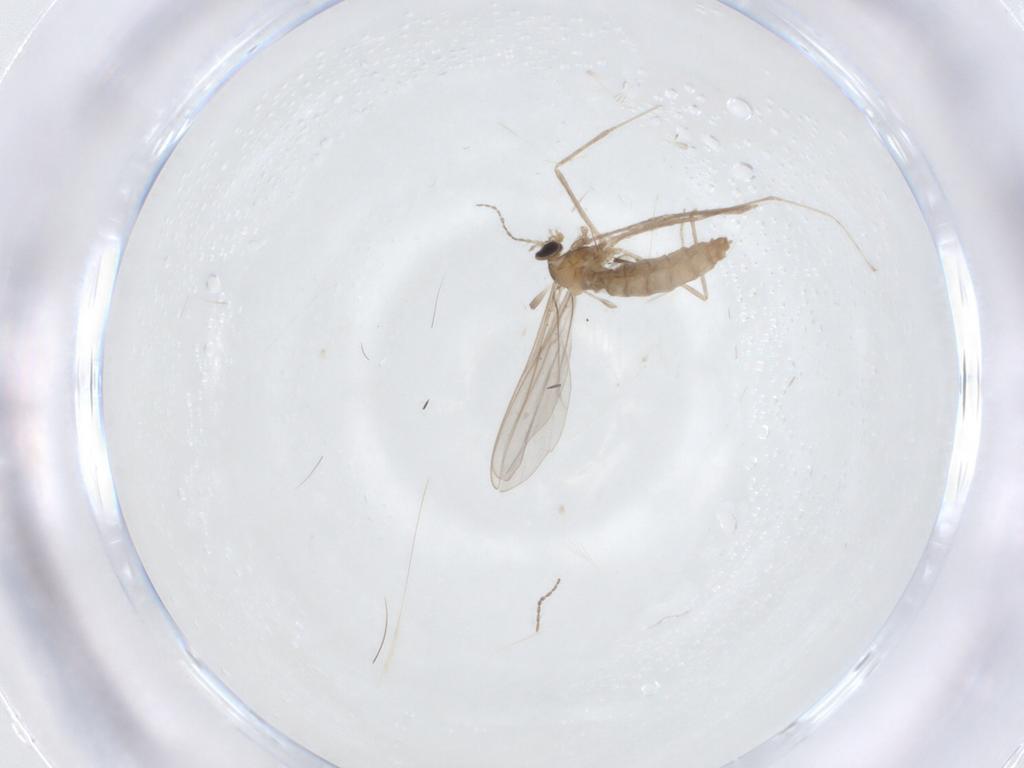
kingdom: Animalia
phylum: Arthropoda
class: Insecta
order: Diptera
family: Cecidomyiidae
